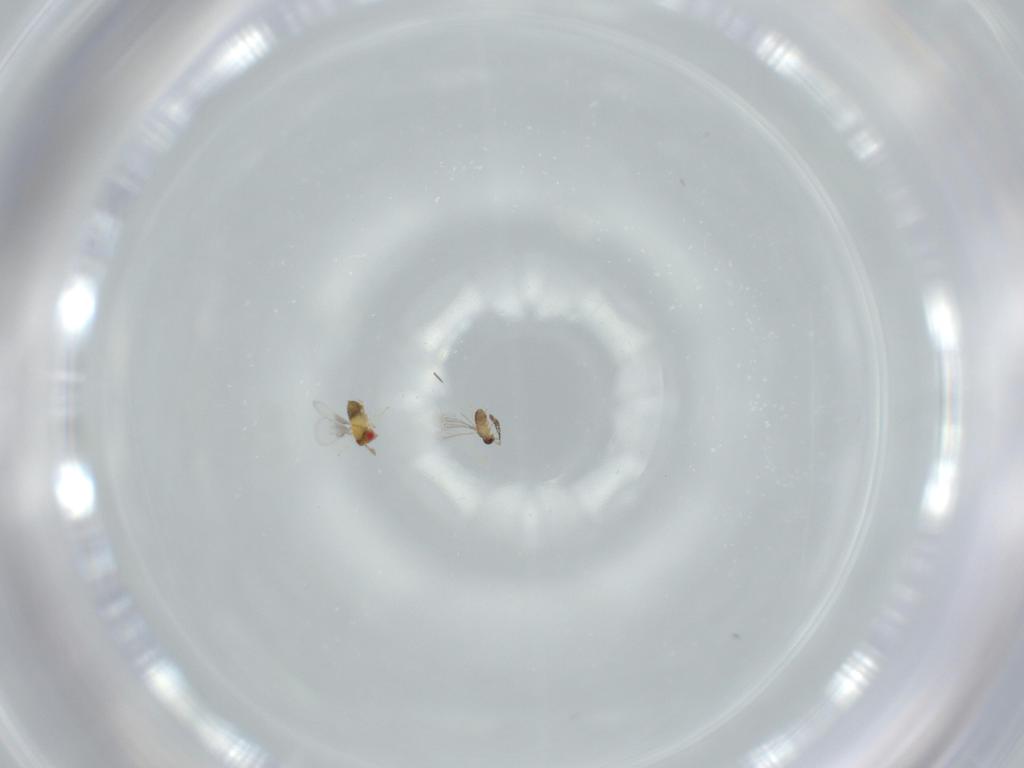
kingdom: Animalia
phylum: Arthropoda
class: Insecta
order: Hymenoptera
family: Trichogrammatidae
